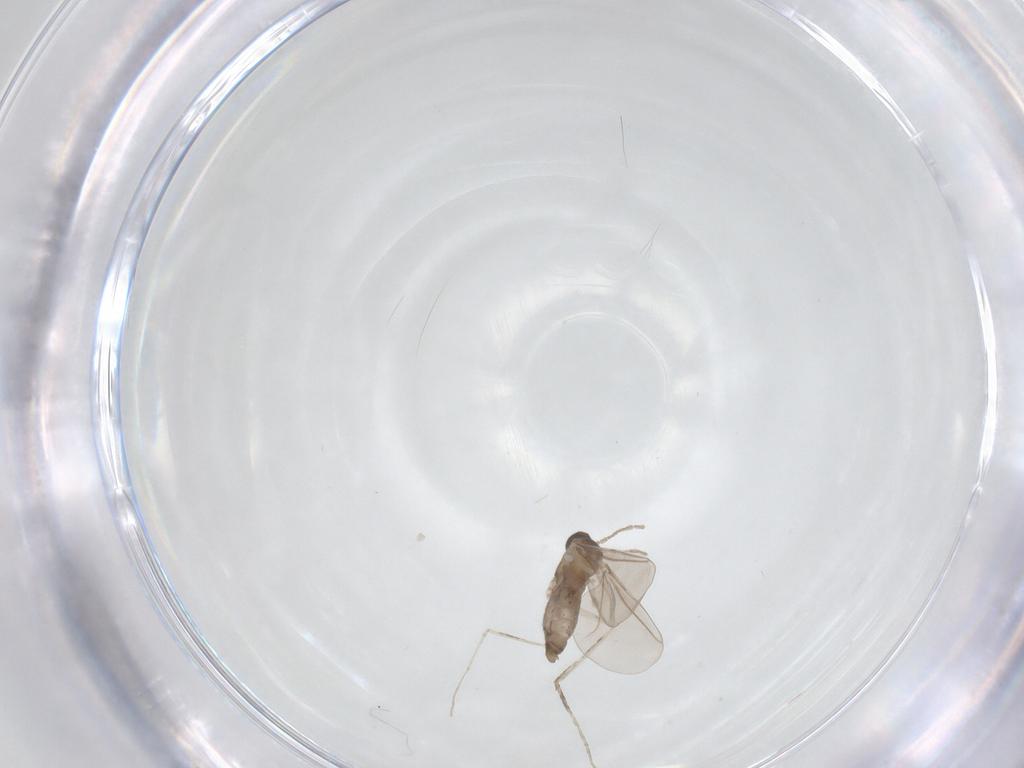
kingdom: Animalia
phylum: Arthropoda
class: Insecta
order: Diptera
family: Cecidomyiidae
